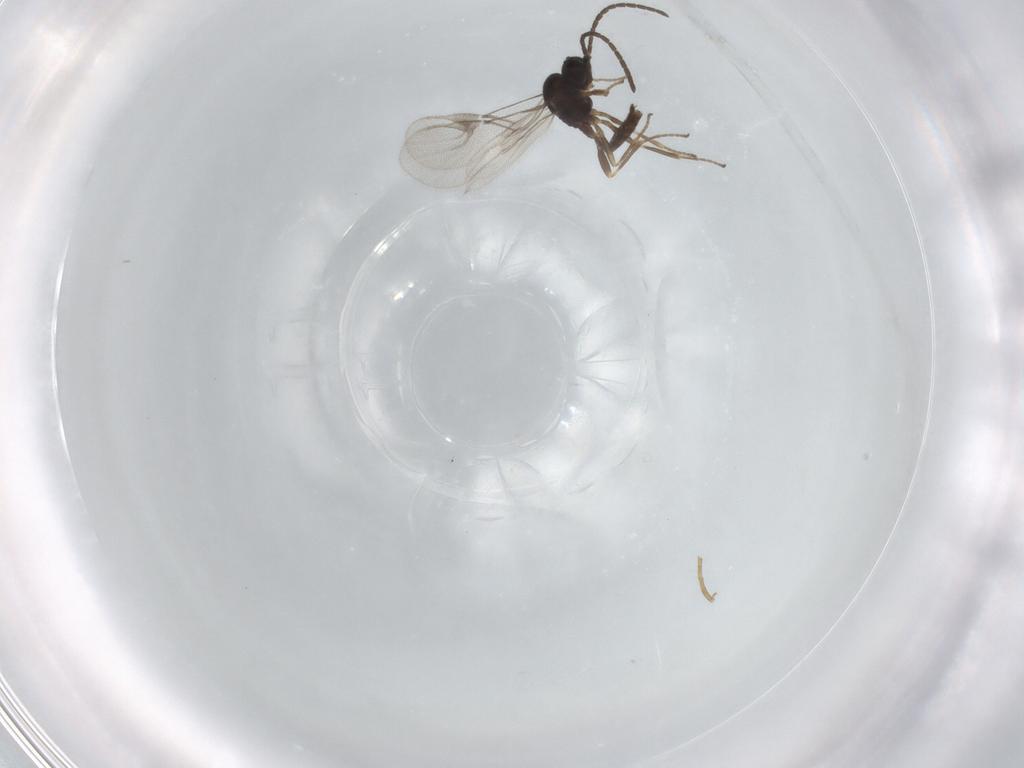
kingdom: Animalia
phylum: Arthropoda
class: Insecta
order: Hymenoptera
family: Braconidae
